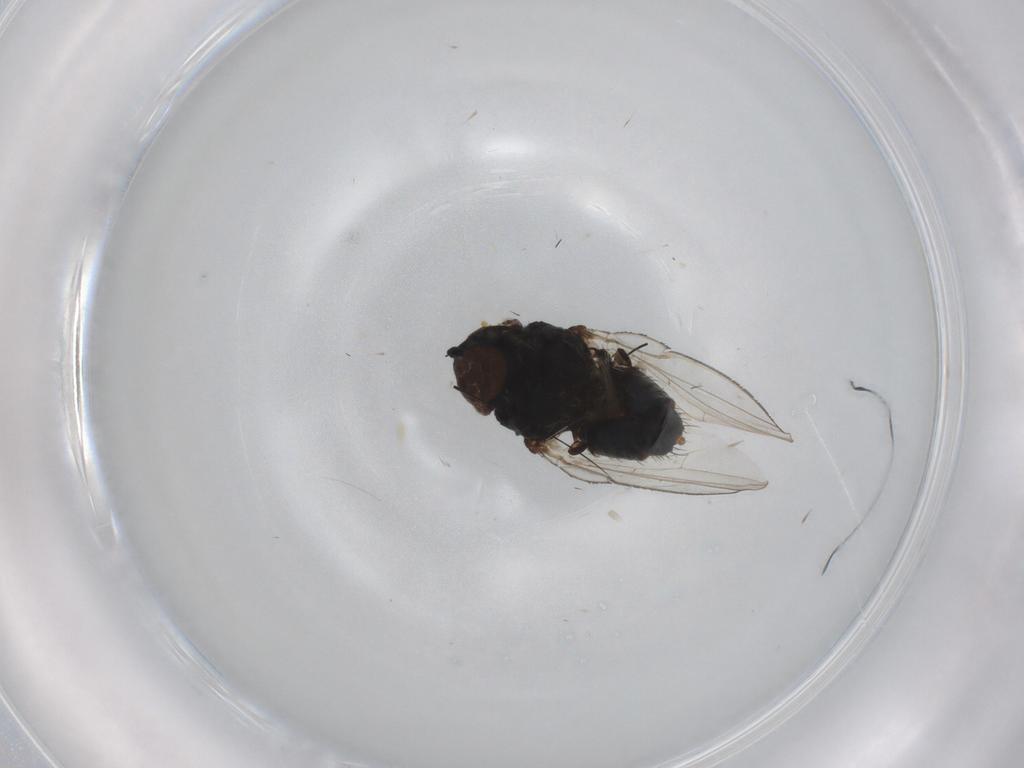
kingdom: Animalia
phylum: Arthropoda
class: Insecta
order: Diptera
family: Milichiidae
